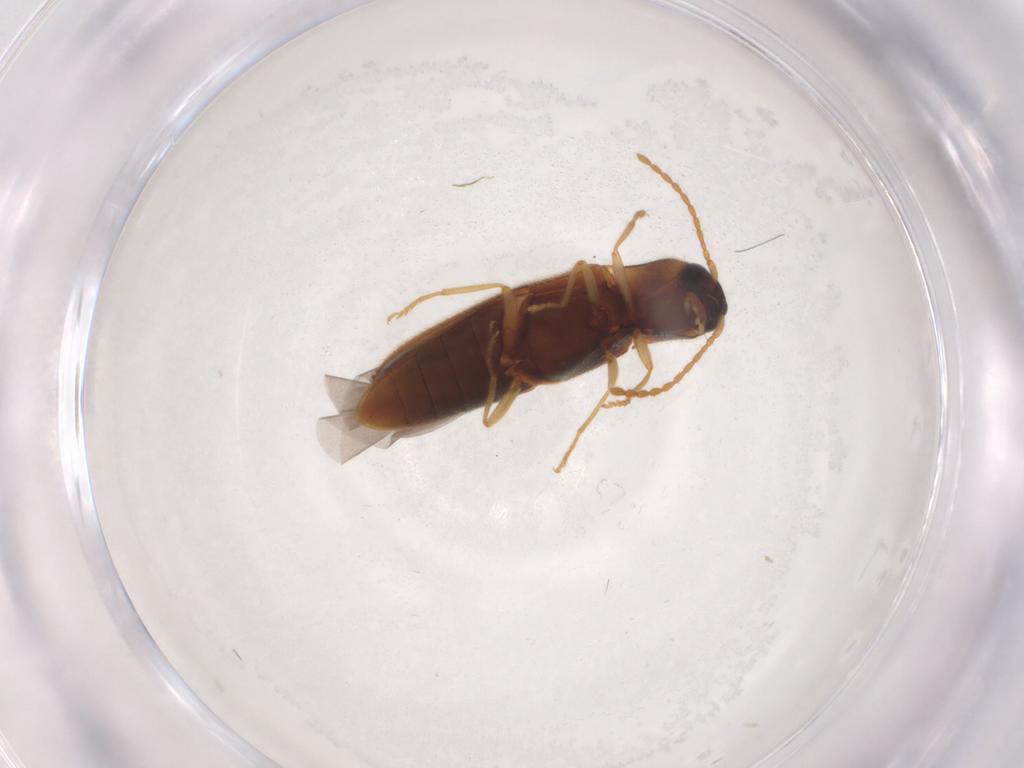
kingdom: Animalia
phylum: Arthropoda
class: Insecta
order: Coleoptera
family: Elateridae
